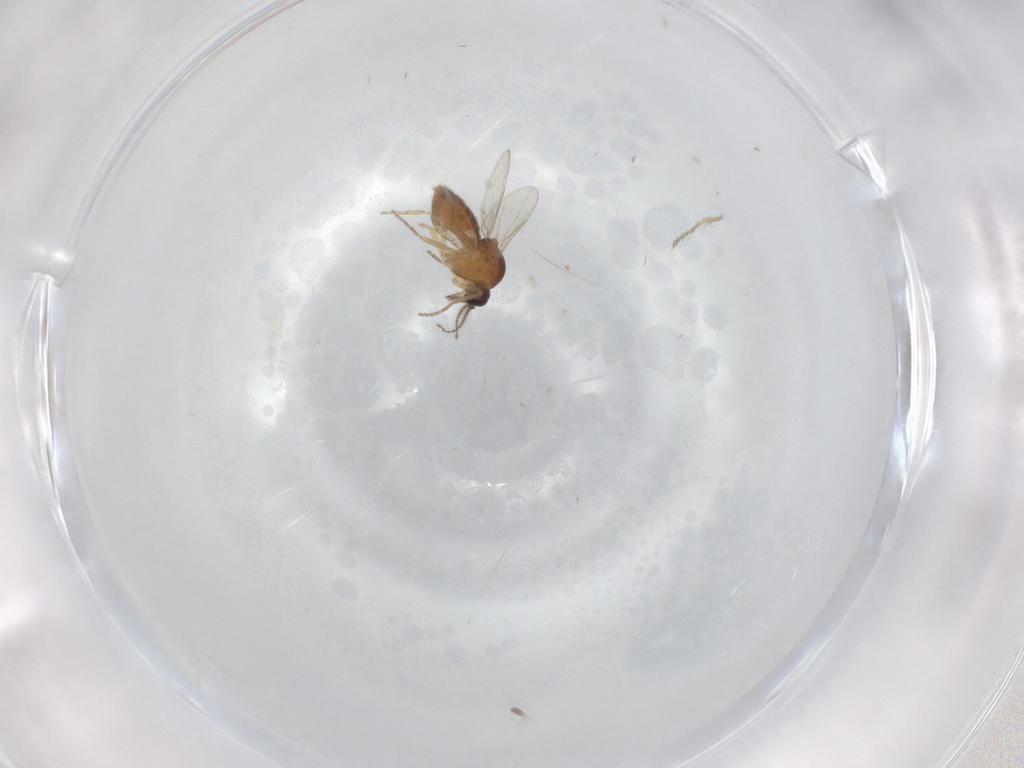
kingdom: Animalia
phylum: Arthropoda
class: Insecta
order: Diptera
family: Ceratopogonidae
